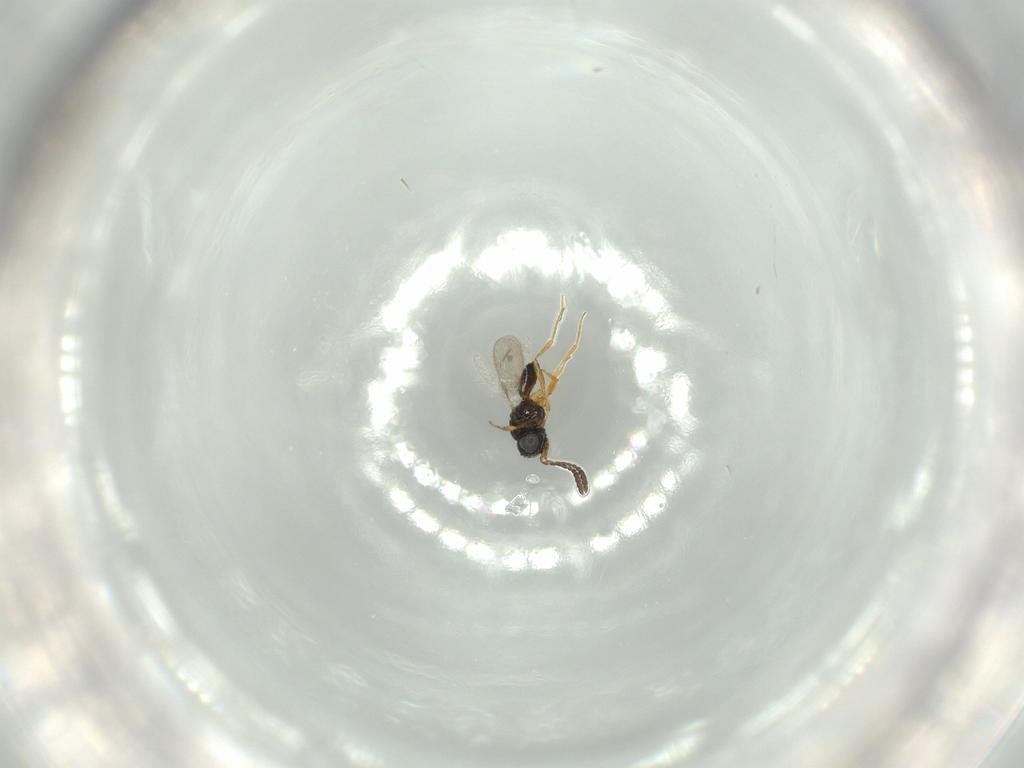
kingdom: Animalia
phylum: Arthropoda
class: Insecta
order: Hymenoptera
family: Scelionidae
